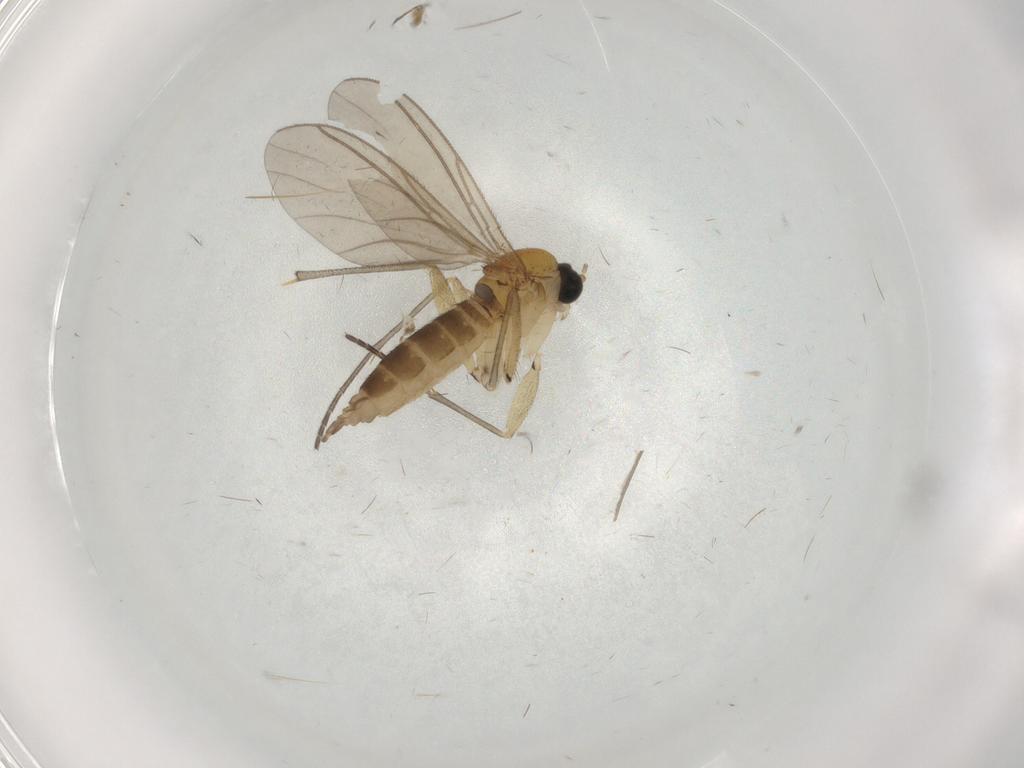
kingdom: Animalia
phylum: Arthropoda
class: Insecta
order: Diptera
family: Sciaridae
